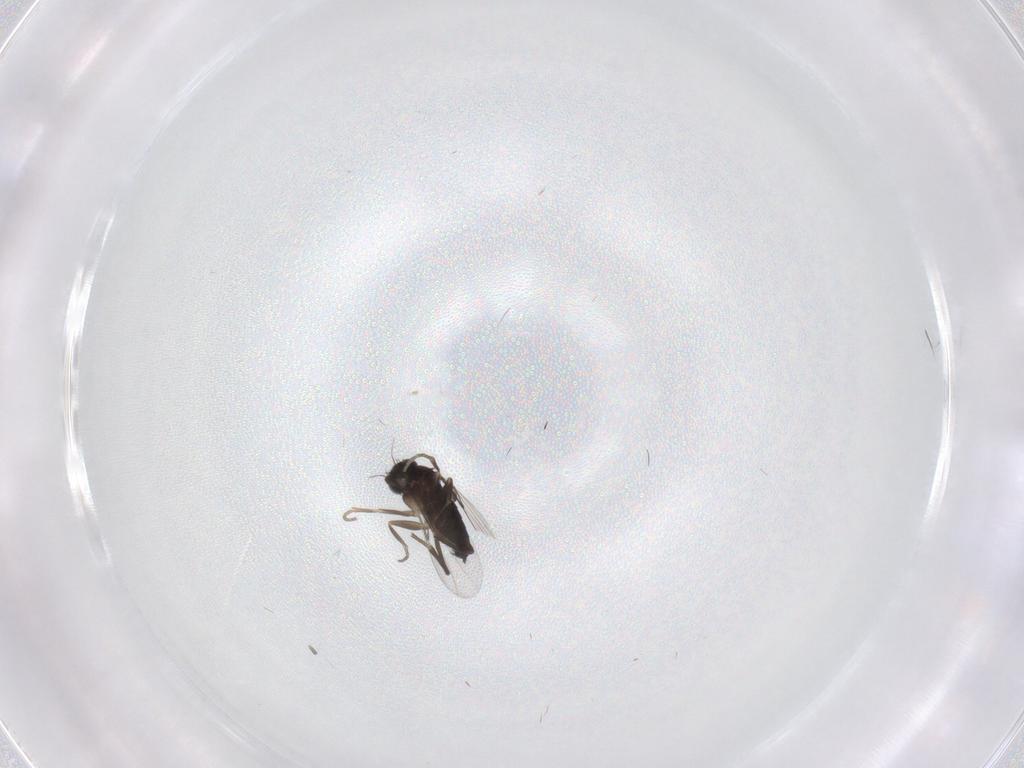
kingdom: Animalia
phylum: Arthropoda
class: Insecta
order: Diptera
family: Phoridae
